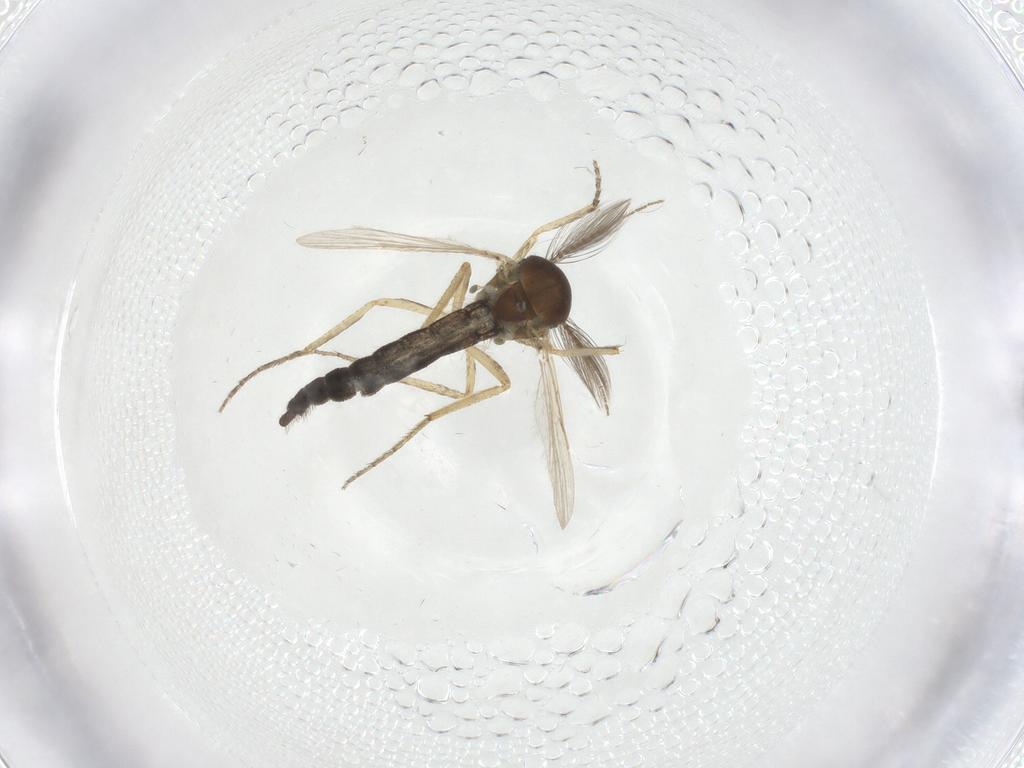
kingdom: Animalia
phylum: Arthropoda
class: Insecta
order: Diptera
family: Ceratopogonidae
